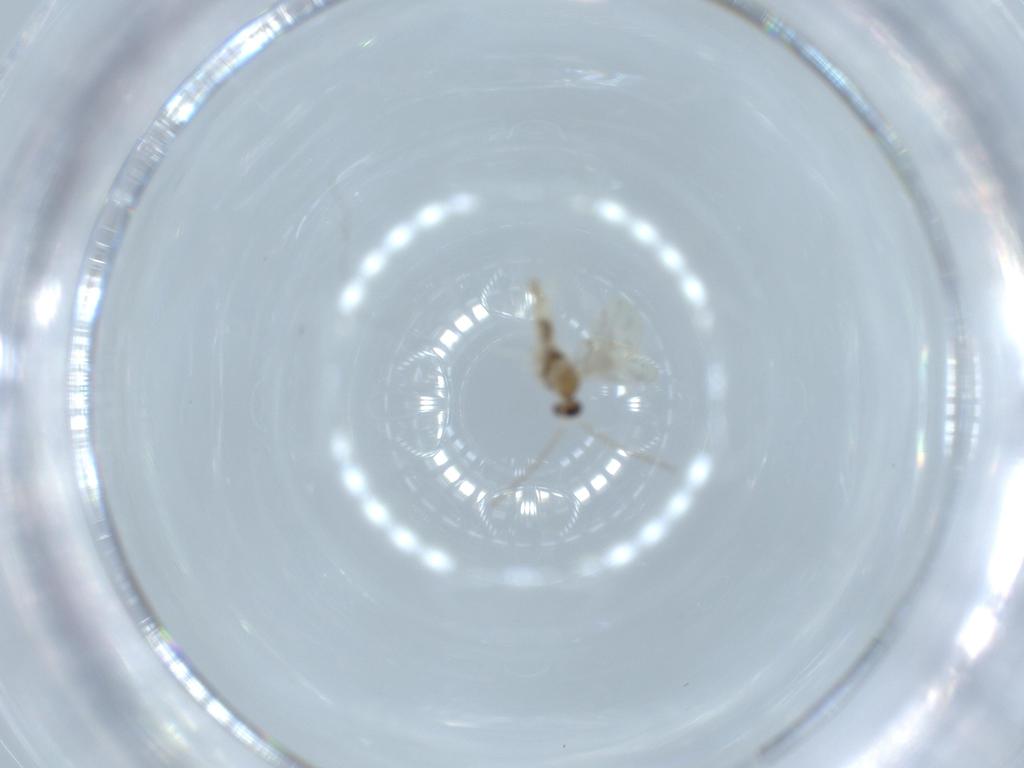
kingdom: Animalia
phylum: Arthropoda
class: Insecta
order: Diptera
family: Cecidomyiidae
